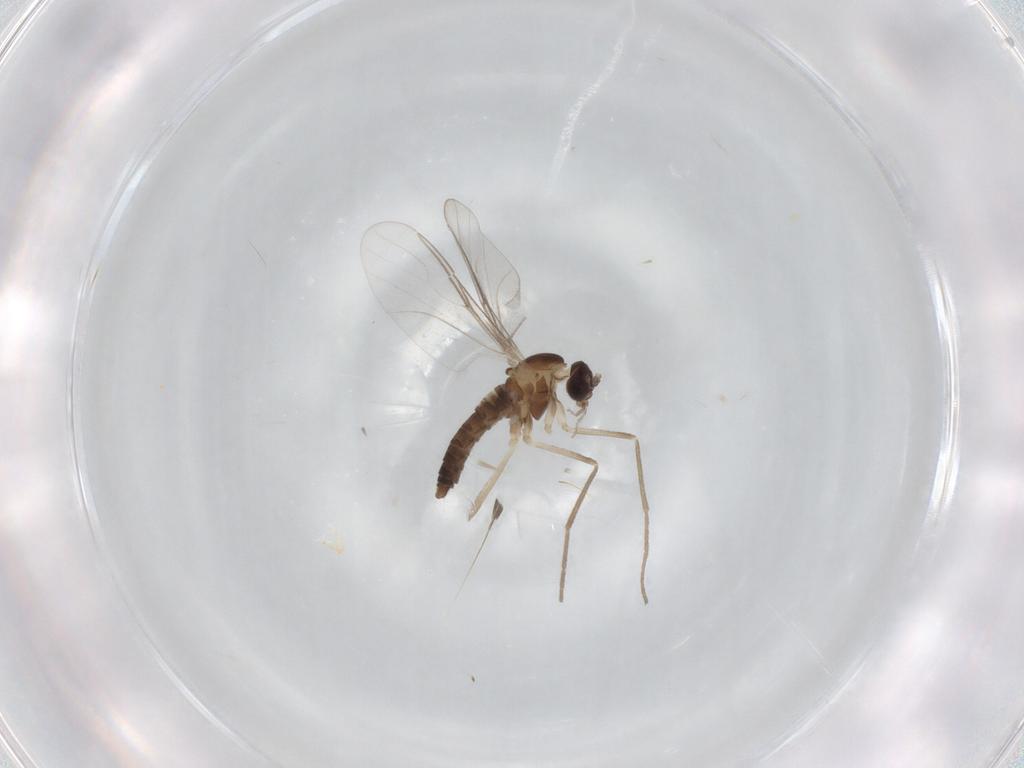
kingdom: Animalia
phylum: Arthropoda
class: Insecta
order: Diptera
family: Cecidomyiidae
